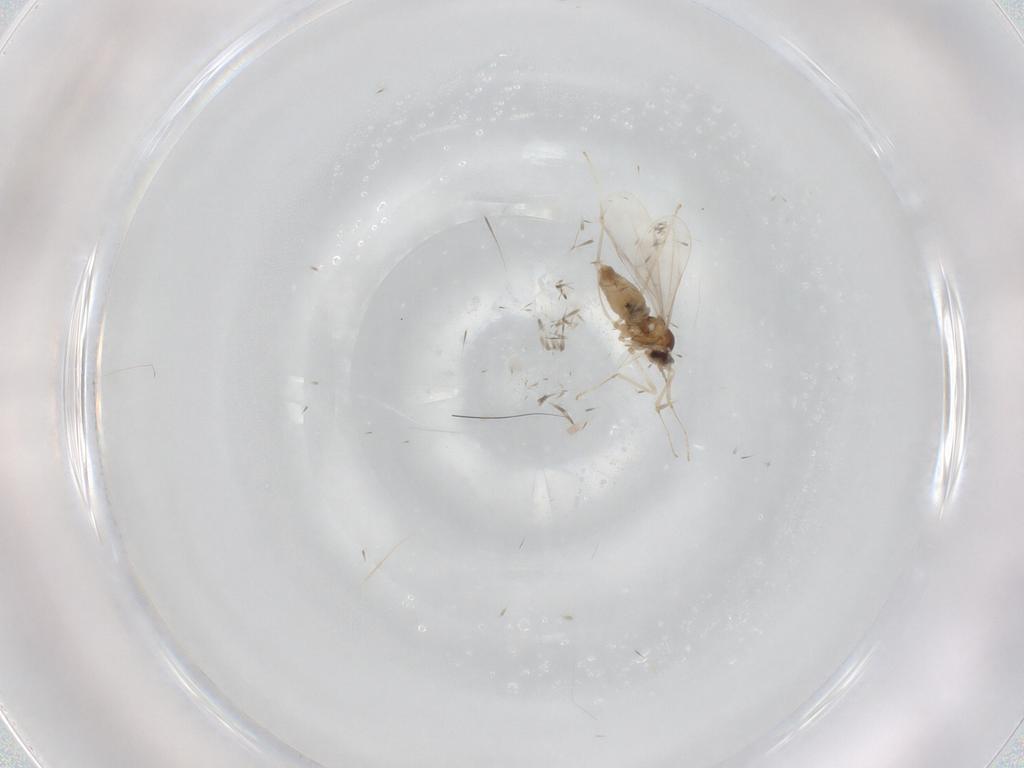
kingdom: Animalia
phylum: Arthropoda
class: Insecta
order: Diptera
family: Cecidomyiidae
